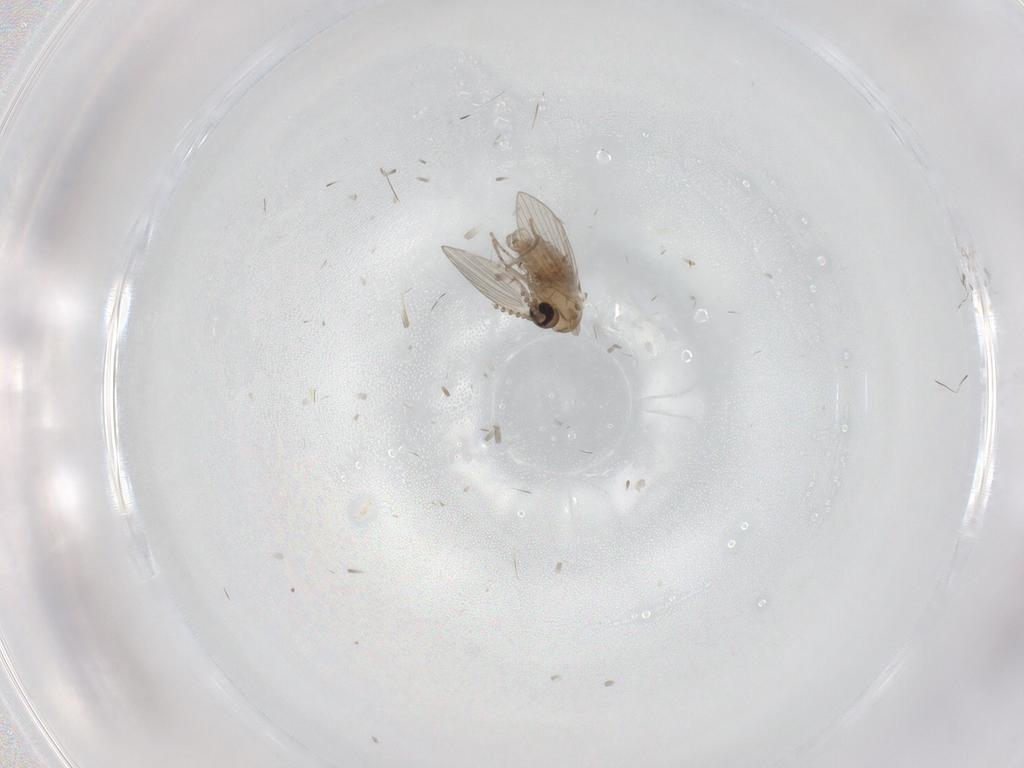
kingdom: Animalia
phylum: Arthropoda
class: Insecta
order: Diptera
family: Psychodidae
